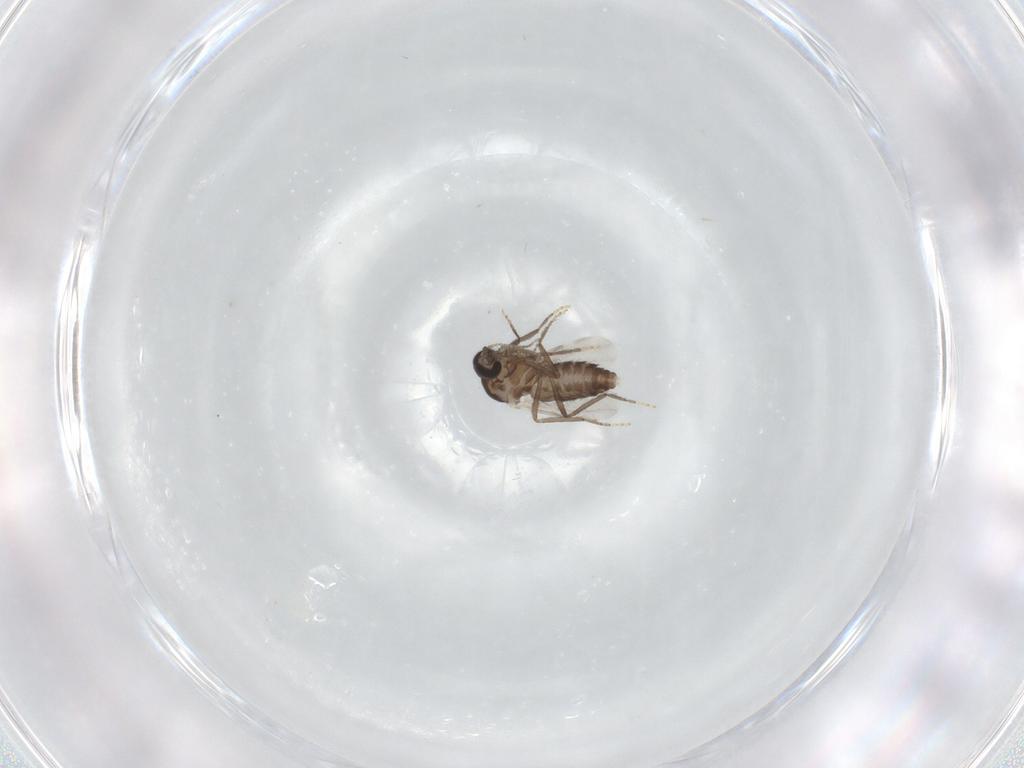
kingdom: Animalia
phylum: Arthropoda
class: Insecta
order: Diptera
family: Ceratopogonidae
